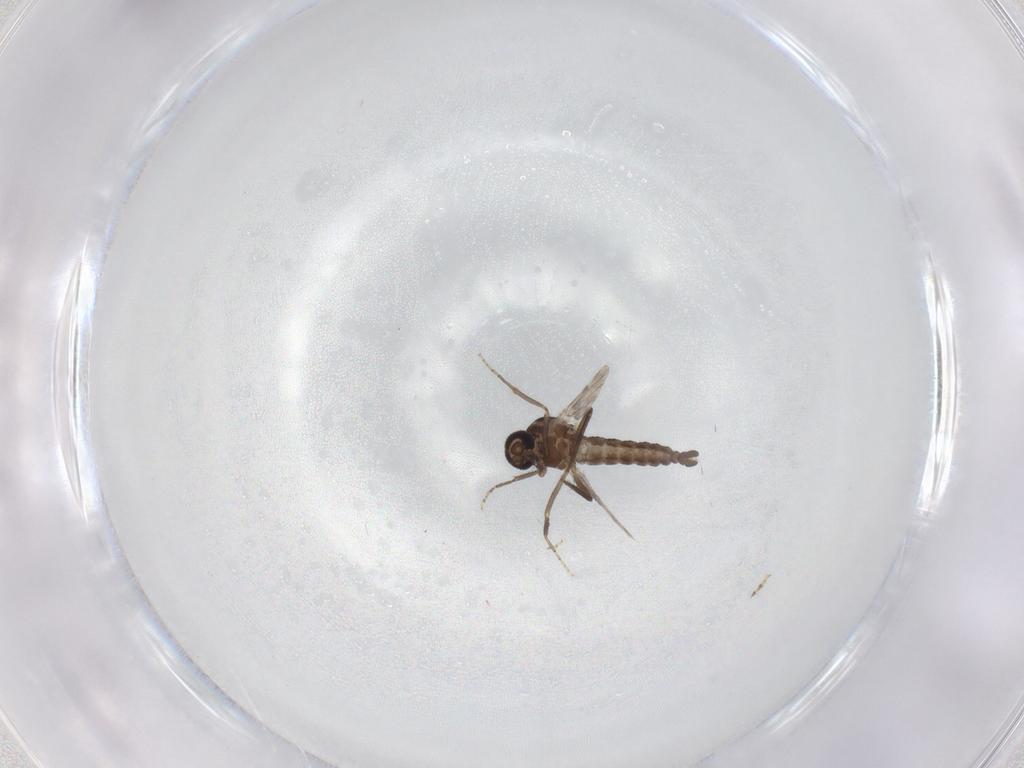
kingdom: Animalia
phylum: Arthropoda
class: Insecta
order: Diptera
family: Ceratopogonidae
